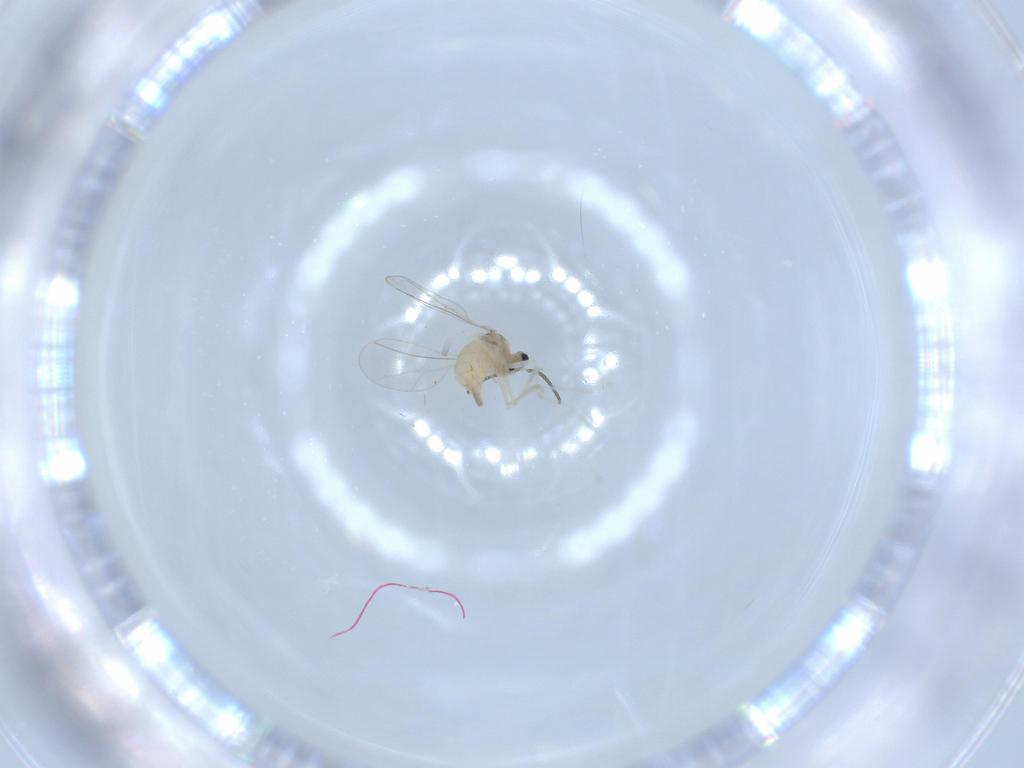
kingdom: Animalia
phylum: Arthropoda
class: Insecta
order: Diptera
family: Cecidomyiidae
